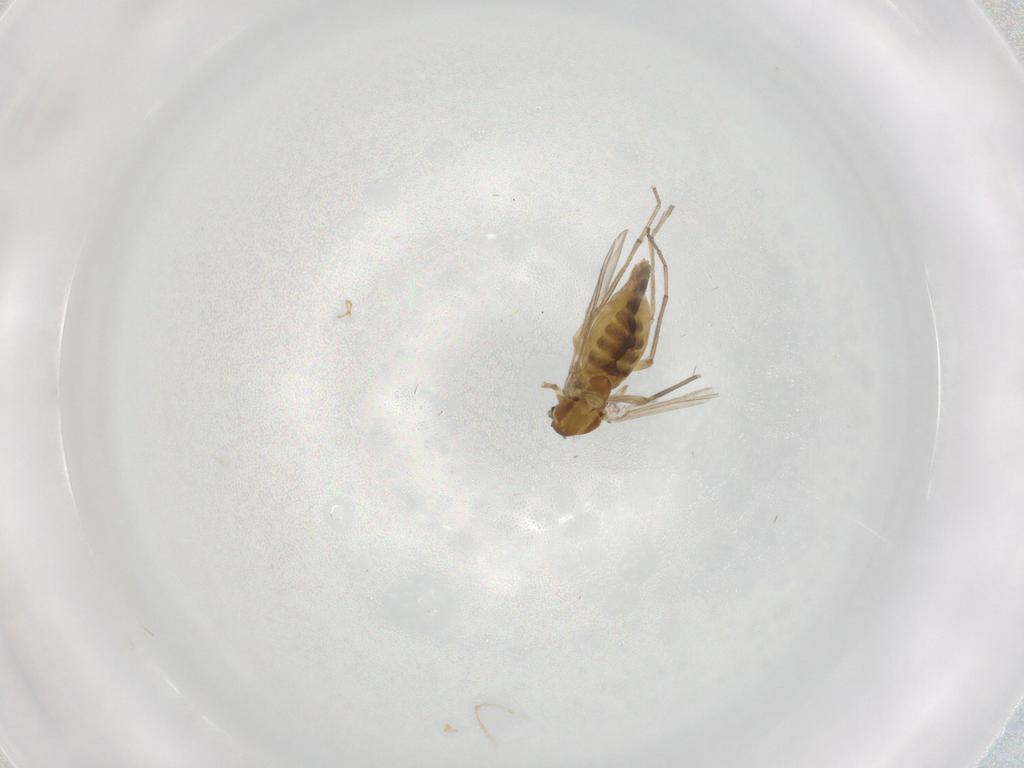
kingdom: Animalia
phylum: Arthropoda
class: Insecta
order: Diptera
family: Chironomidae
